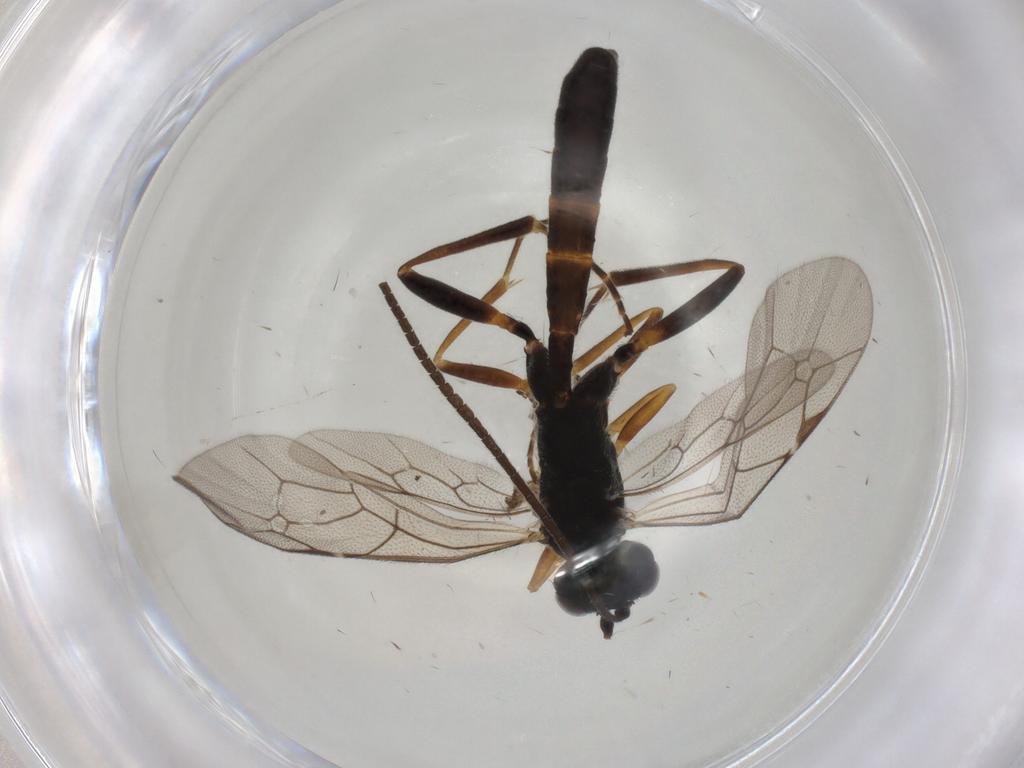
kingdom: Animalia
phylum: Arthropoda
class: Insecta
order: Hymenoptera
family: Ichneumonidae
